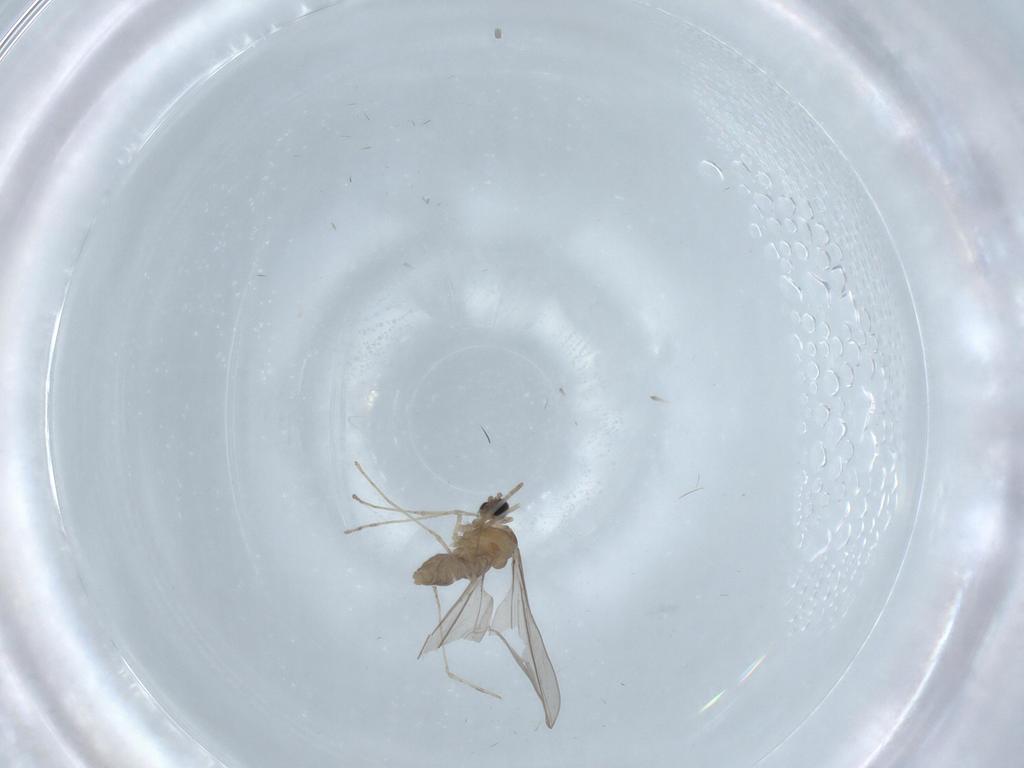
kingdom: Animalia
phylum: Arthropoda
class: Insecta
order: Diptera
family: Cecidomyiidae
